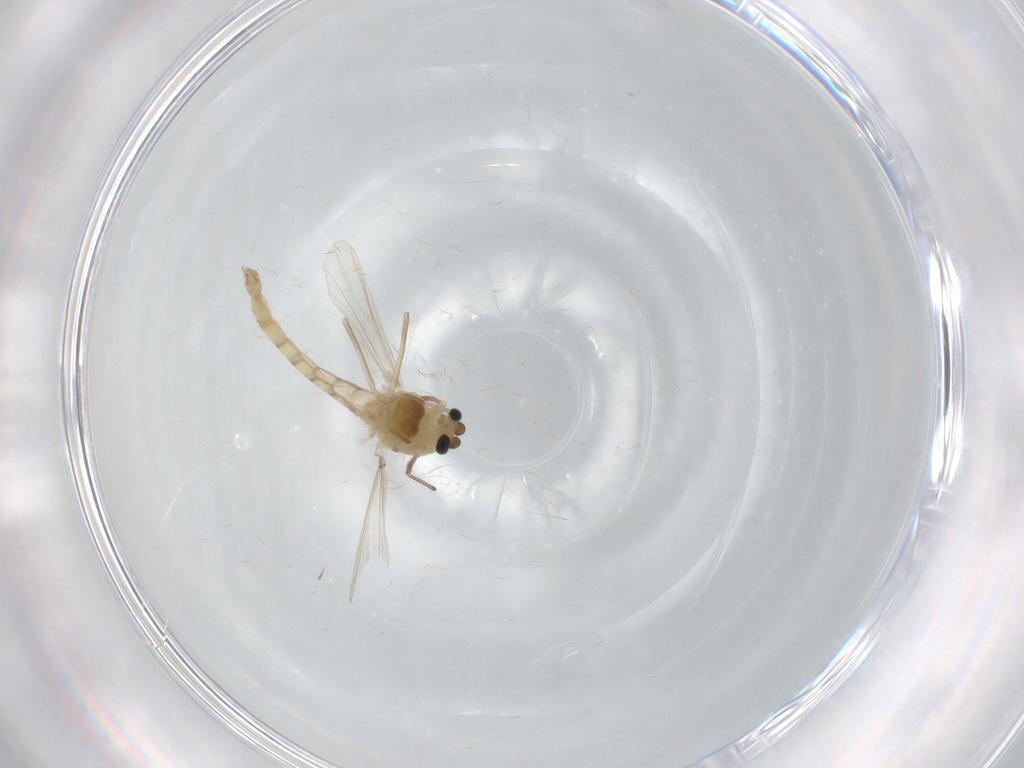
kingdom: Animalia
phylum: Arthropoda
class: Insecta
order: Diptera
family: Chironomidae
